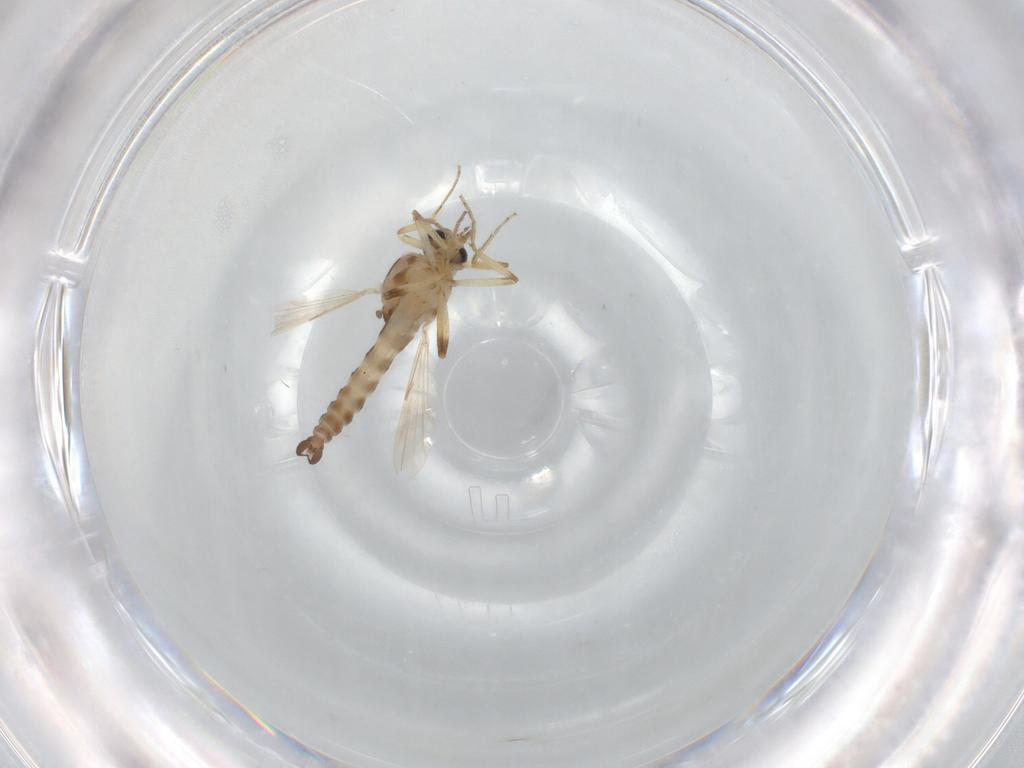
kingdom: Animalia
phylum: Arthropoda
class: Insecta
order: Diptera
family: Ceratopogonidae
